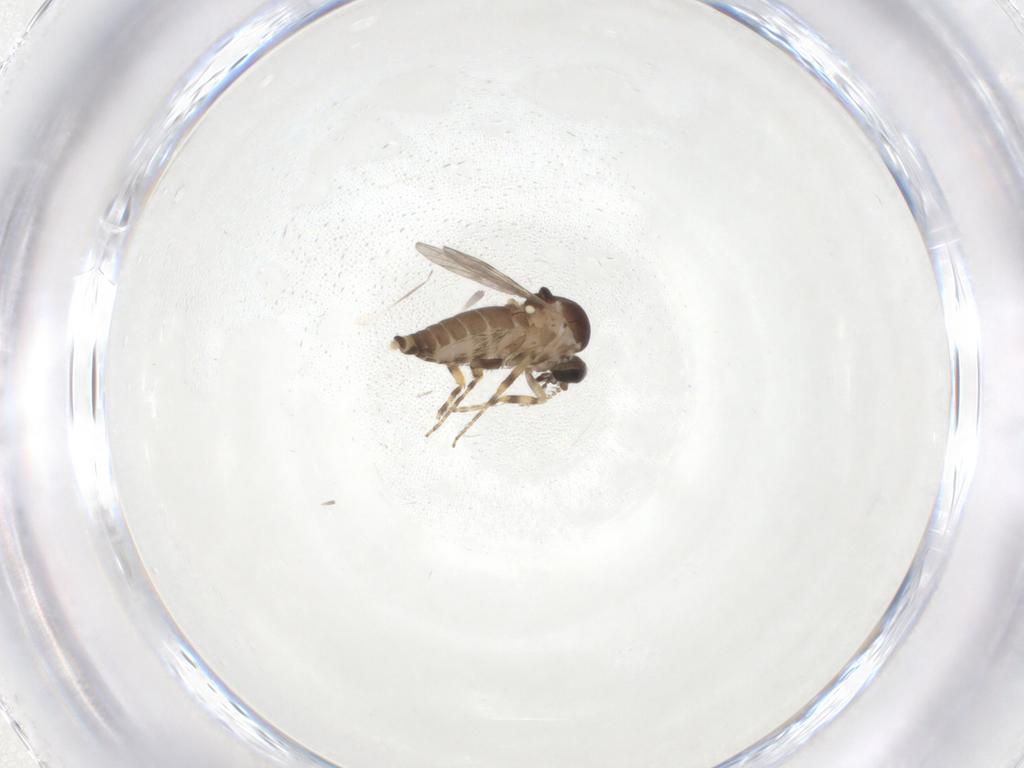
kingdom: Animalia
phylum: Arthropoda
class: Insecta
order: Diptera
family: Ceratopogonidae
